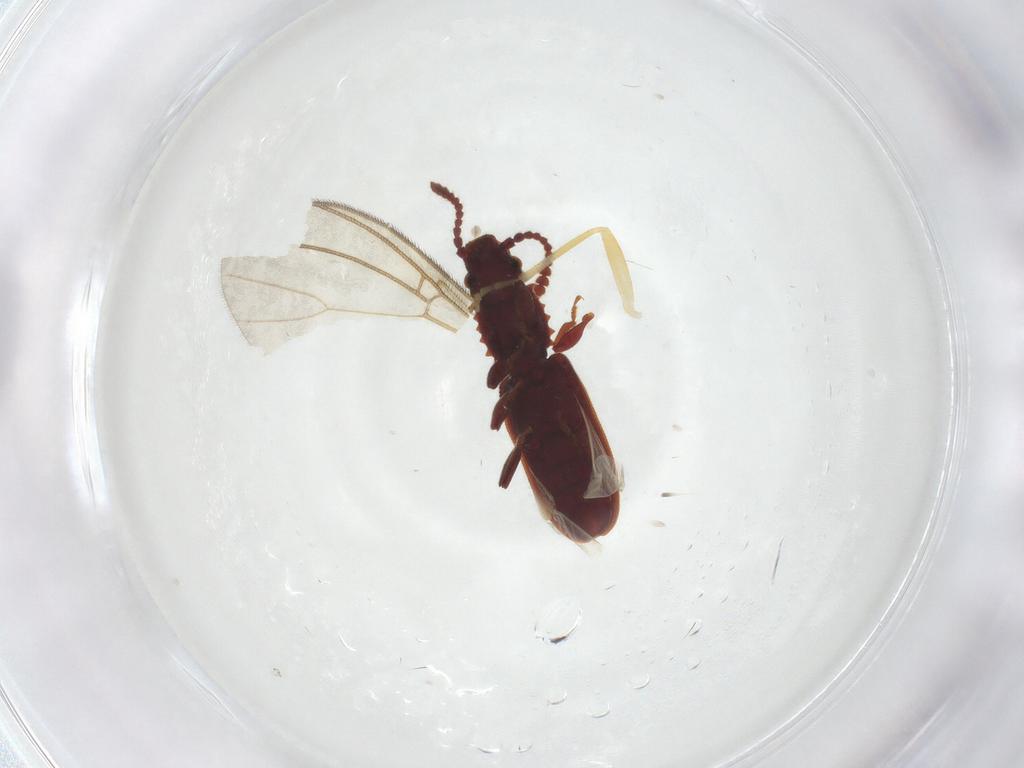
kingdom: Animalia
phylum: Arthropoda
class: Insecta
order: Coleoptera
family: Cantharidae
